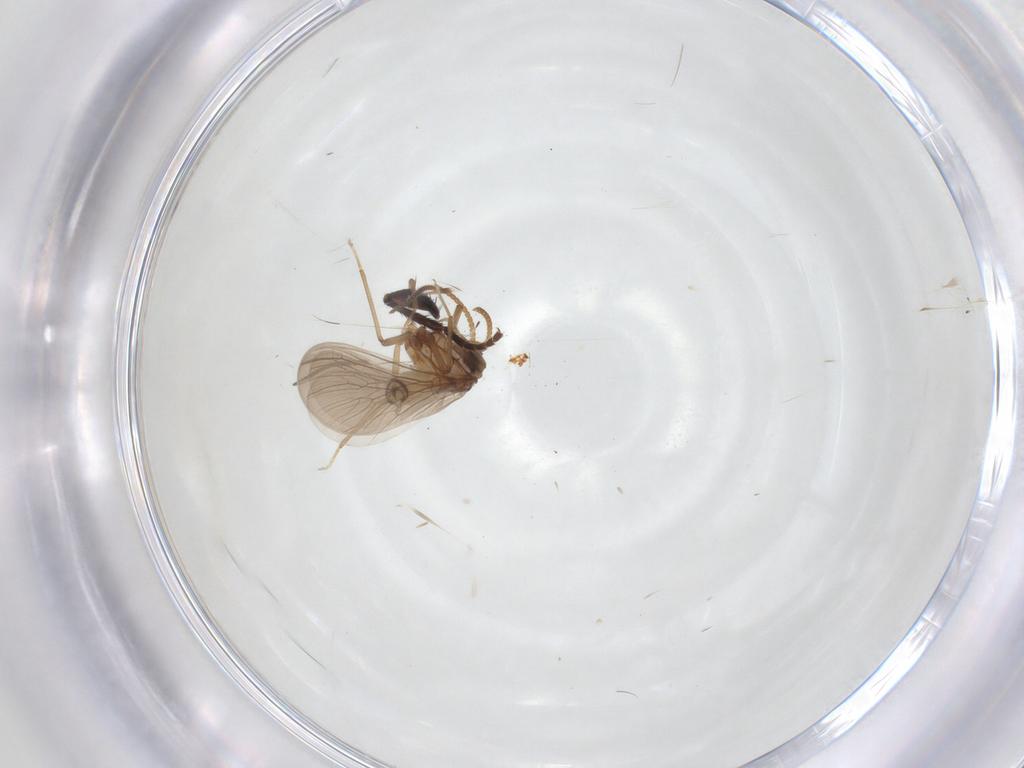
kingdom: Animalia
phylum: Arthropoda
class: Insecta
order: Neuroptera
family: Coniopterygidae
